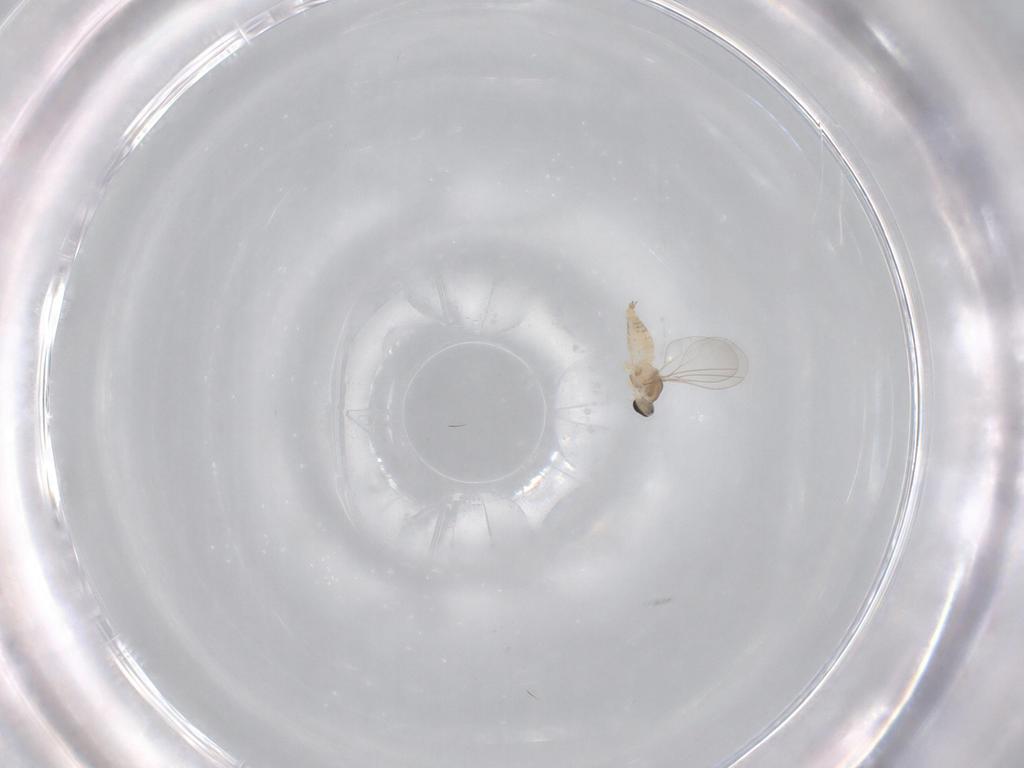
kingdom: Animalia
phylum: Arthropoda
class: Insecta
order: Diptera
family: Cecidomyiidae
